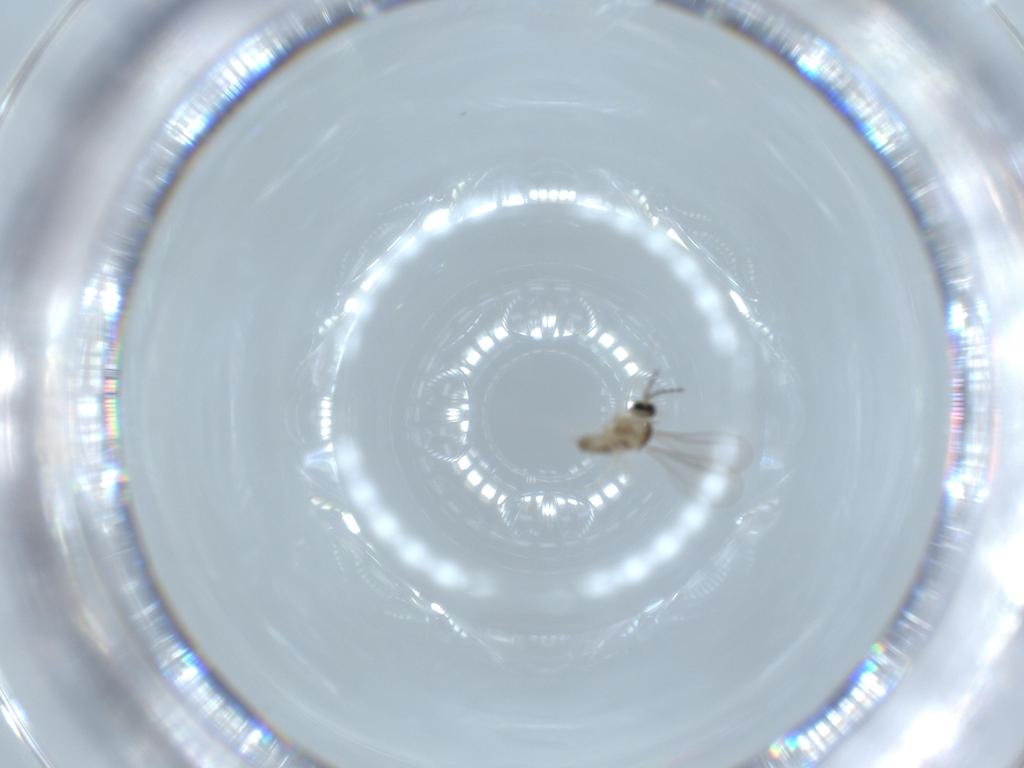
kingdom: Animalia
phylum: Arthropoda
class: Insecta
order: Diptera
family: Cecidomyiidae
